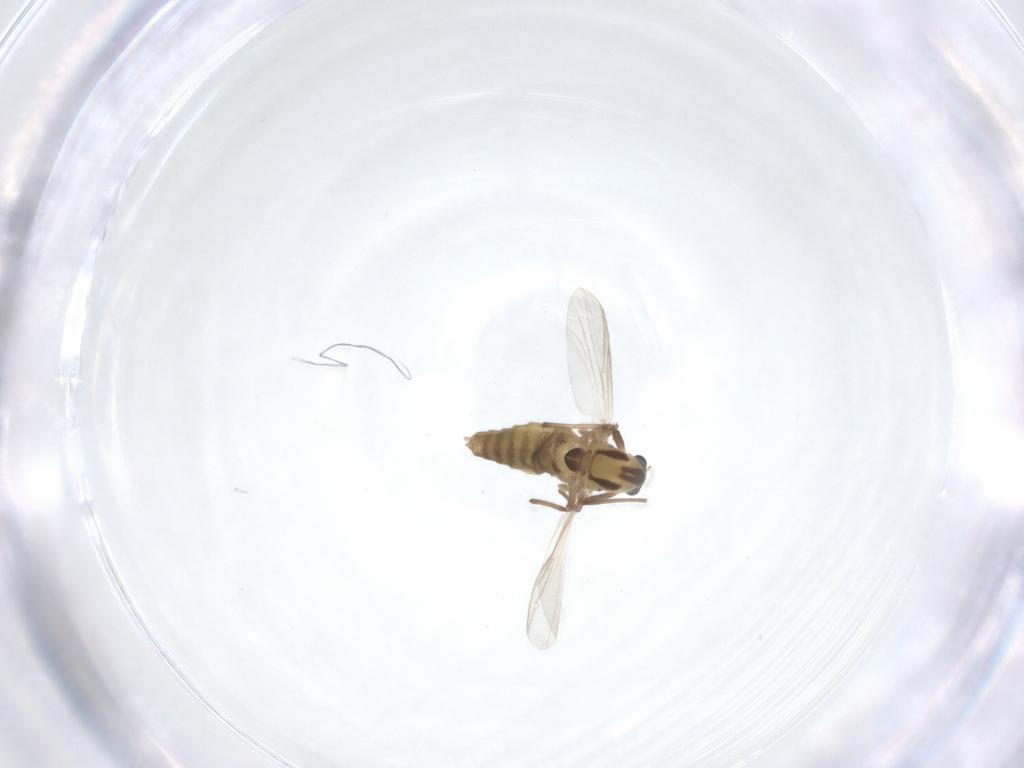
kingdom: Animalia
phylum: Arthropoda
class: Insecta
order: Diptera
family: Chironomidae
